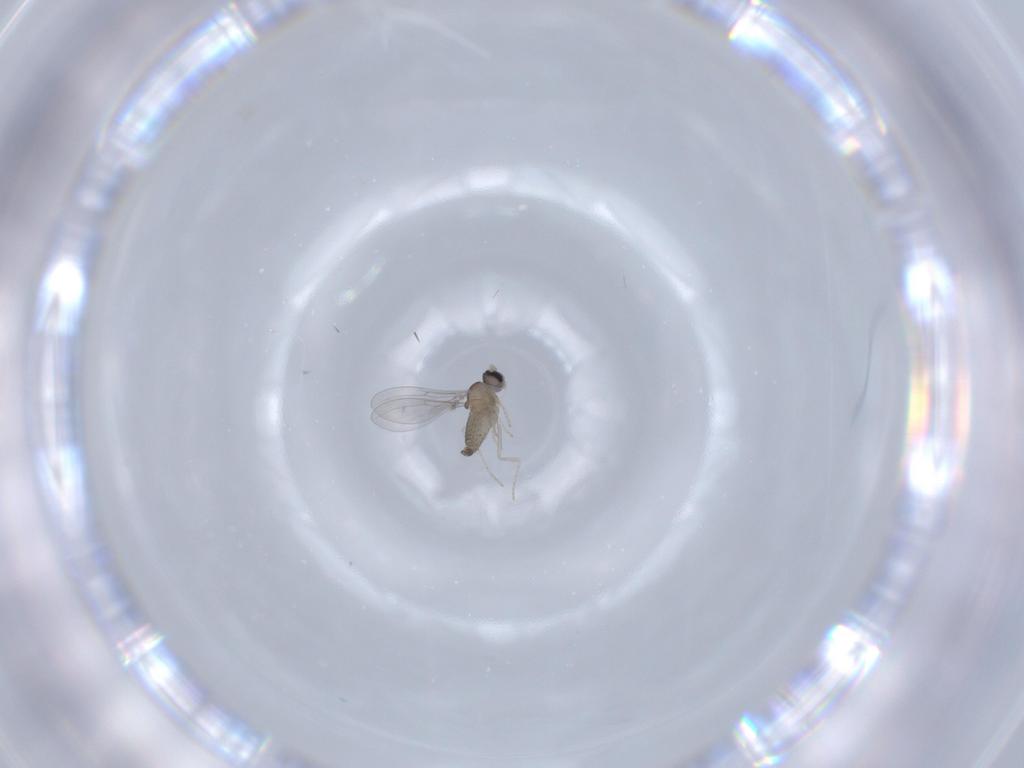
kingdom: Animalia
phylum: Arthropoda
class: Insecta
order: Diptera
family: Cecidomyiidae
